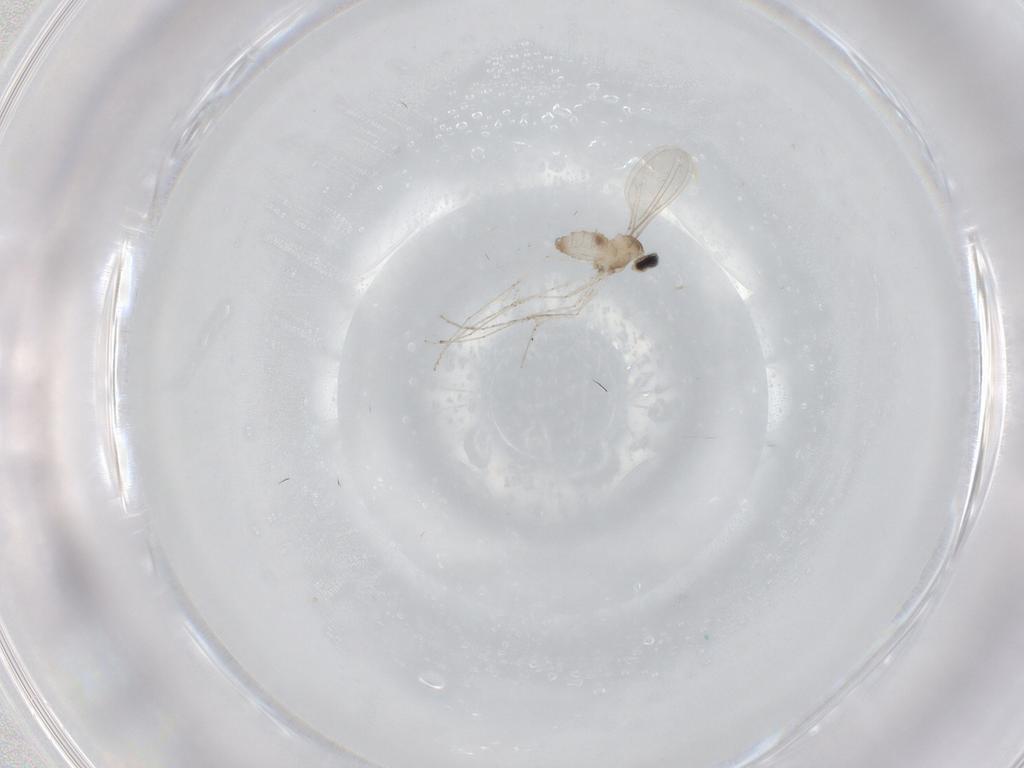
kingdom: Animalia
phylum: Arthropoda
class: Insecta
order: Diptera
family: Cecidomyiidae
